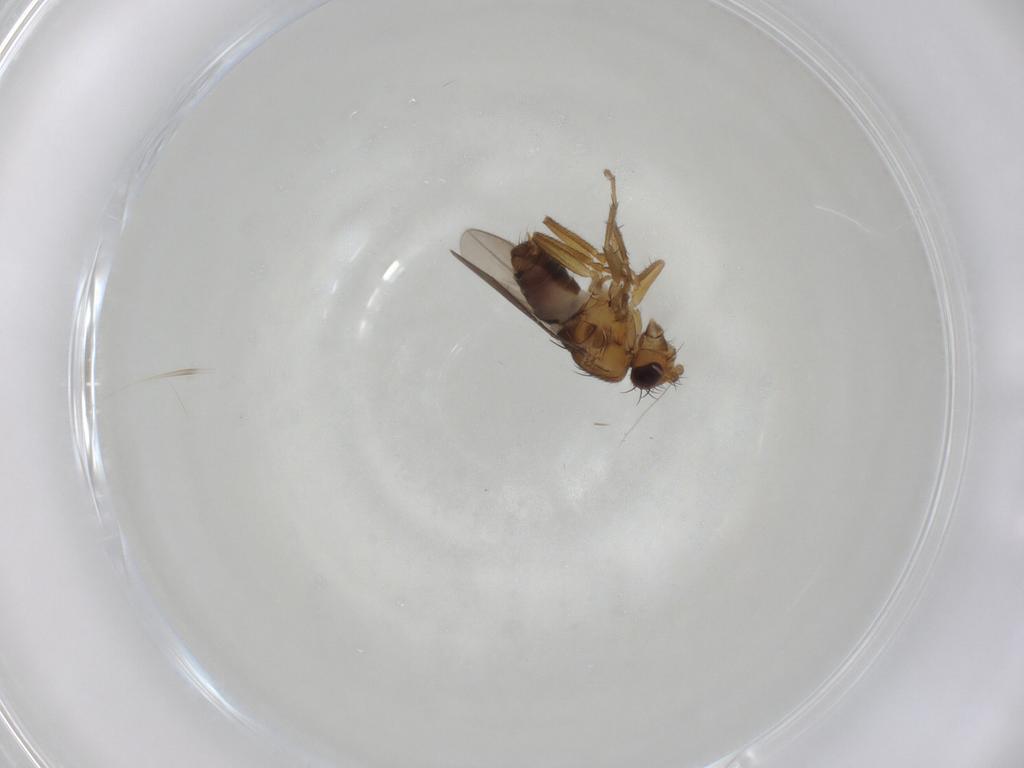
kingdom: Animalia
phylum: Arthropoda
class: Insecta
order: Diptera
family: Sphaeroceridae
